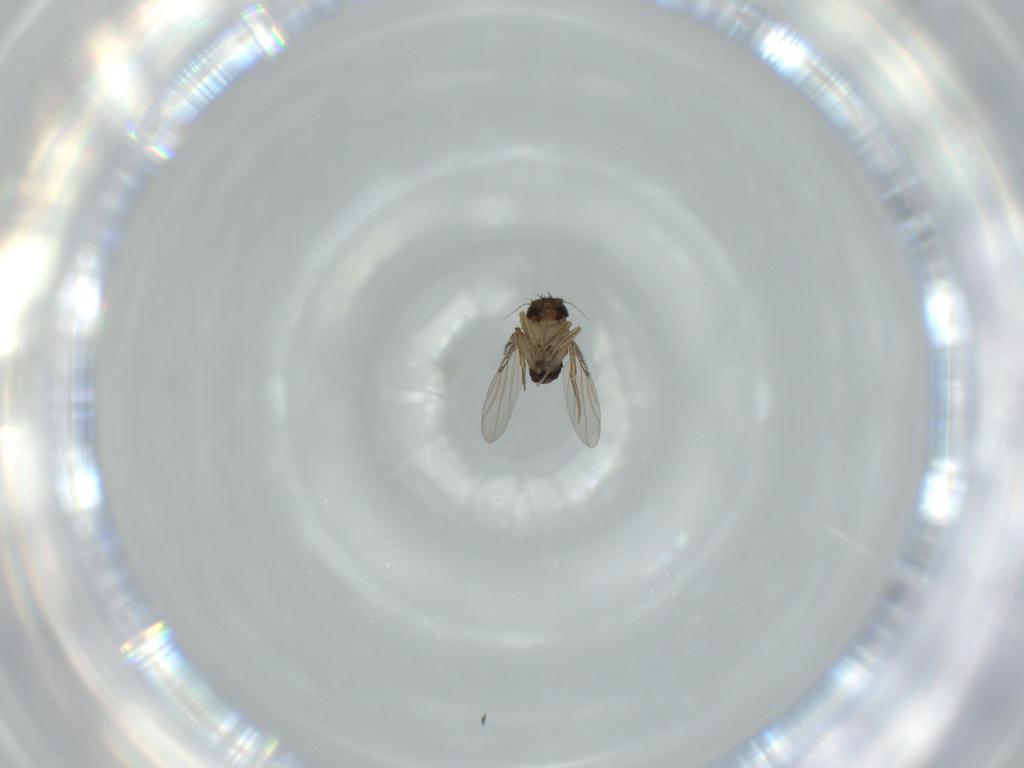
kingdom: Animalia
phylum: Arthropoda
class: Insecta
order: Diptera
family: Phoridae
